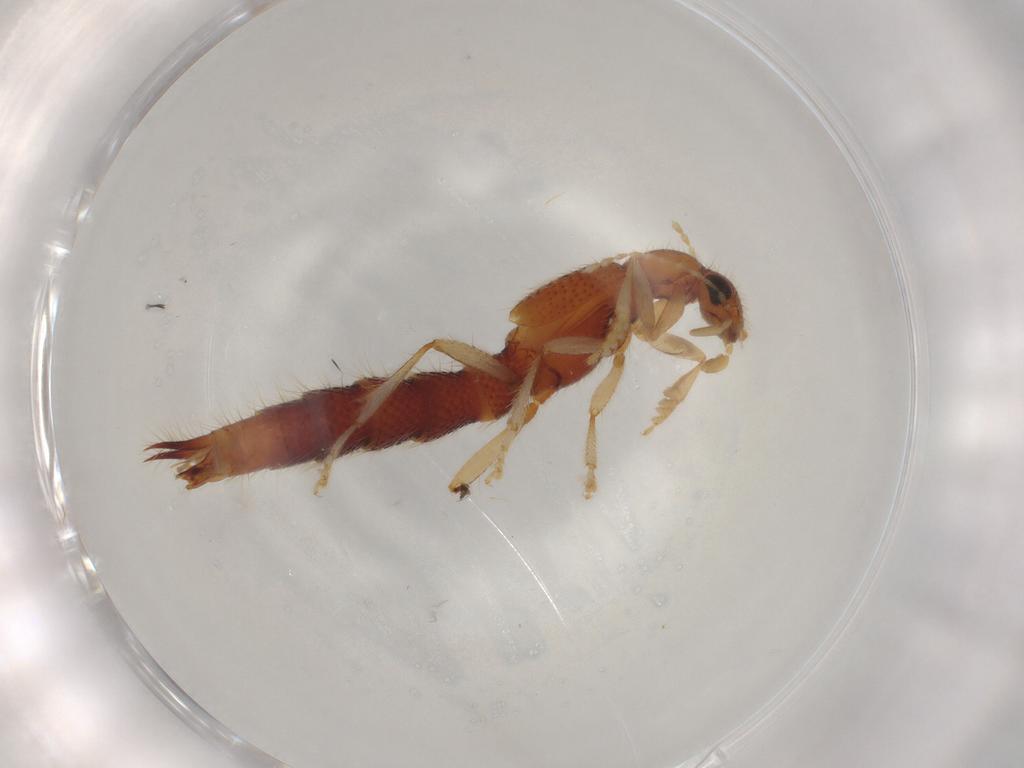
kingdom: Animalia
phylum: Arthropoda
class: Insecta
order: Coleoptera
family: Staphylinidae
